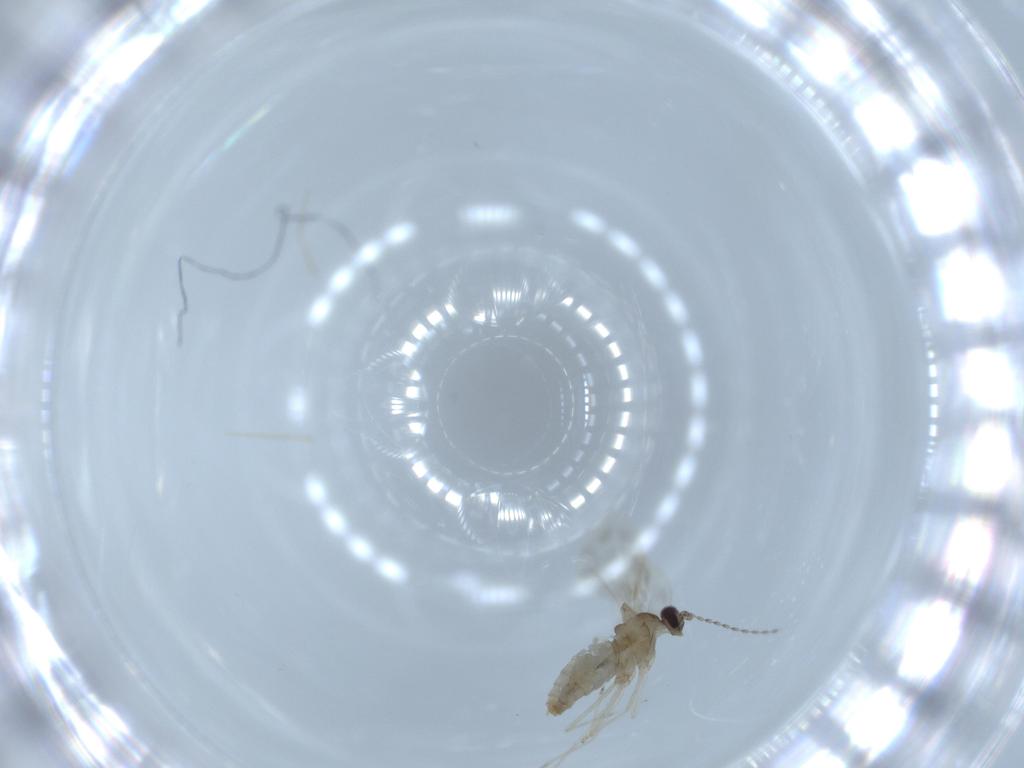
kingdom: Animalia
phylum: Arthropoda
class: Insecta
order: Diptera
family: Cecidomyiidae
